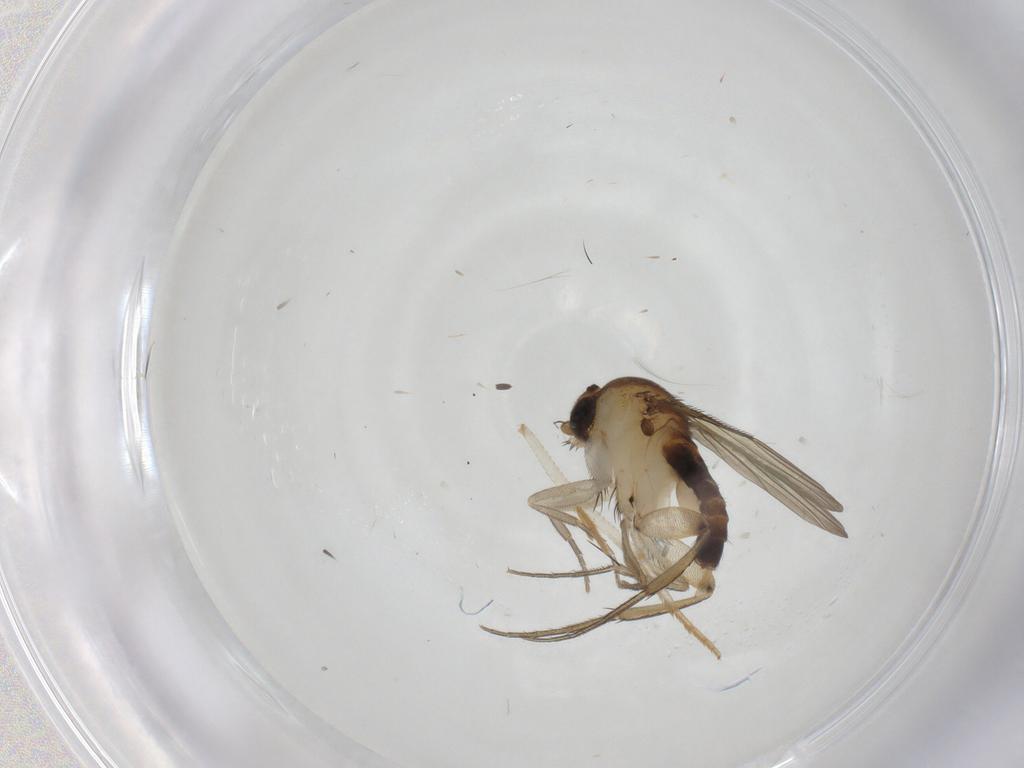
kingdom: Animalia
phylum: Arthropoda
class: Insecta
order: Diptera
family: Phoridae
